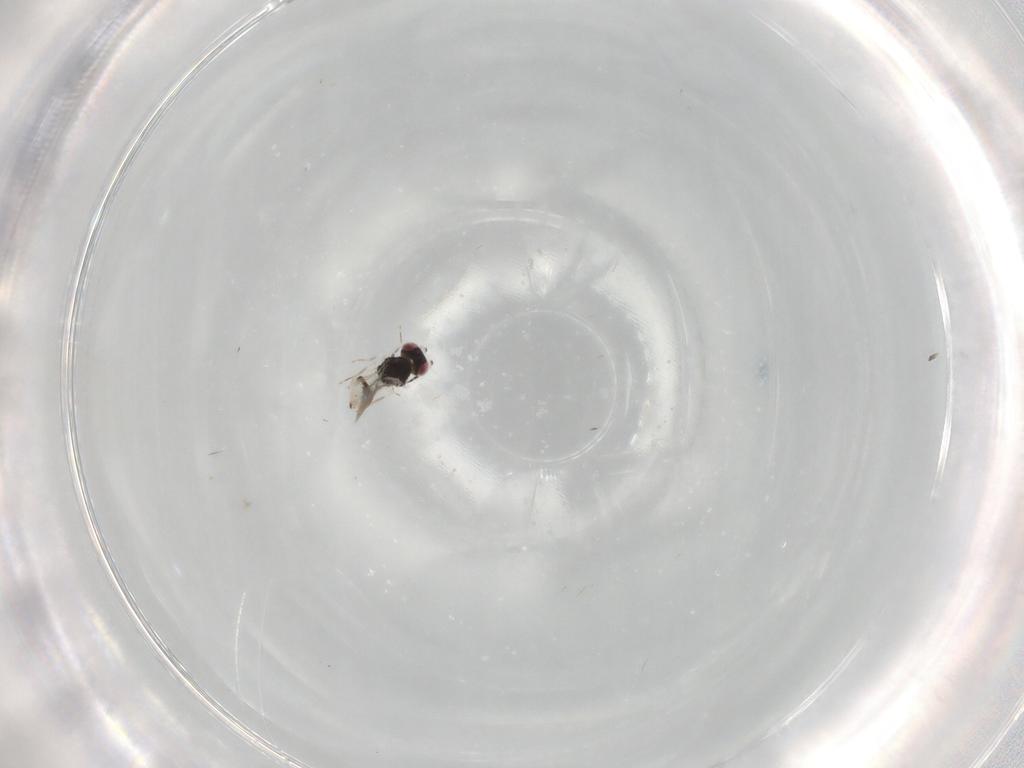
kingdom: Animalia
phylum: Arthropoda
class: Insecta
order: Hymenoptera
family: Eulophidae
